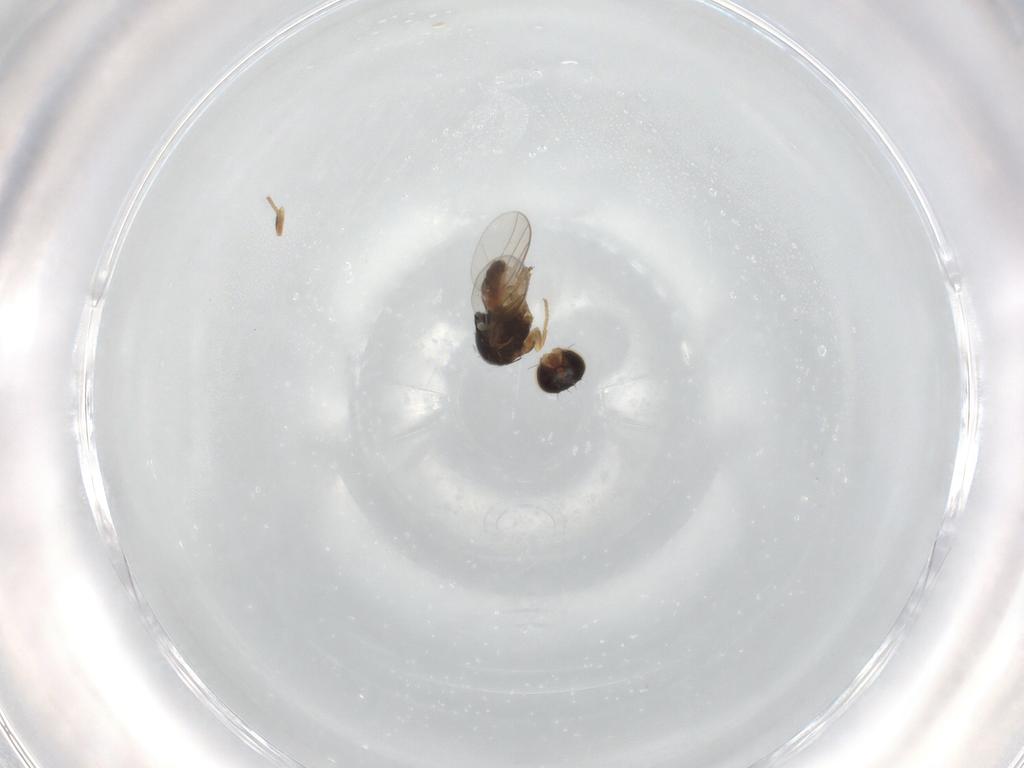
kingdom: Animalia
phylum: Arthropoda
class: Insecta
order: Diptera
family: Chloropidae
